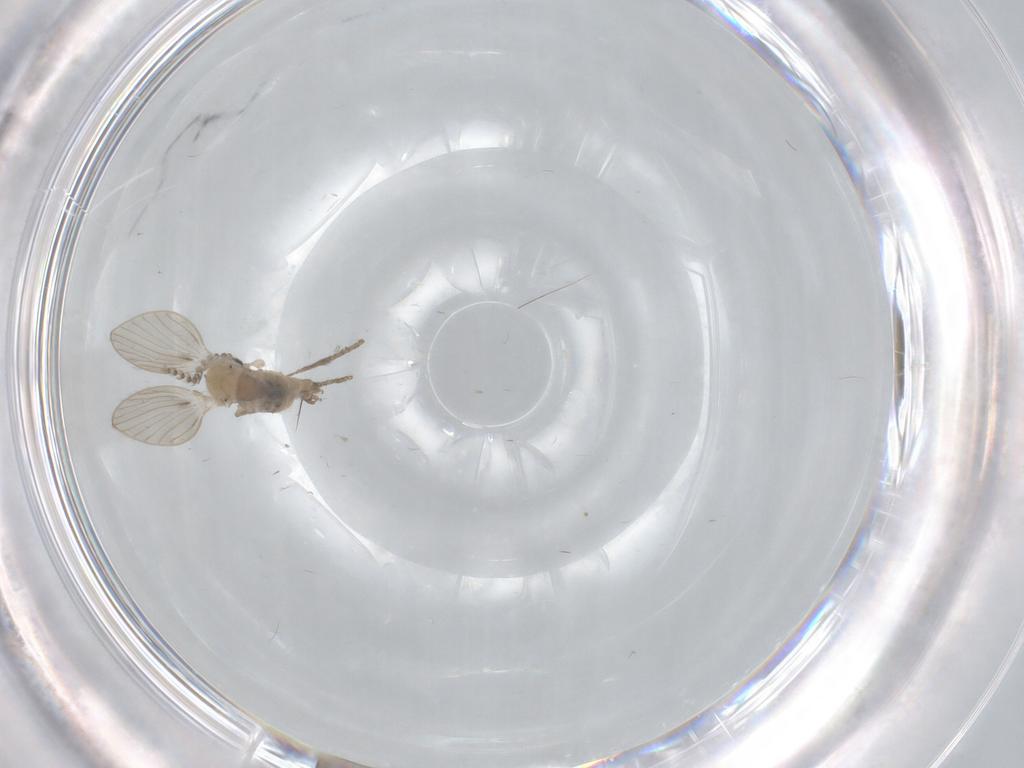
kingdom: Animalia
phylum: Arthropoda
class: Insecta
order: Diptera
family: Psychodidae
